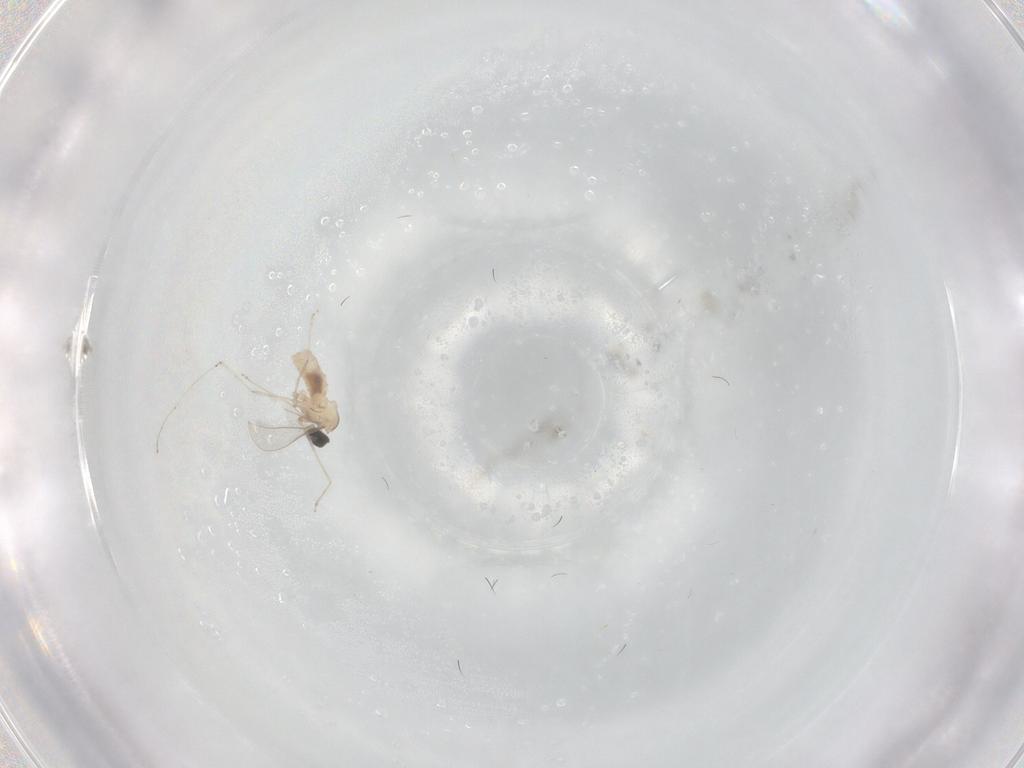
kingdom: Animalia
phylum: Arthropoda
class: Insecta
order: Diptera
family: Cecidomyiidae
